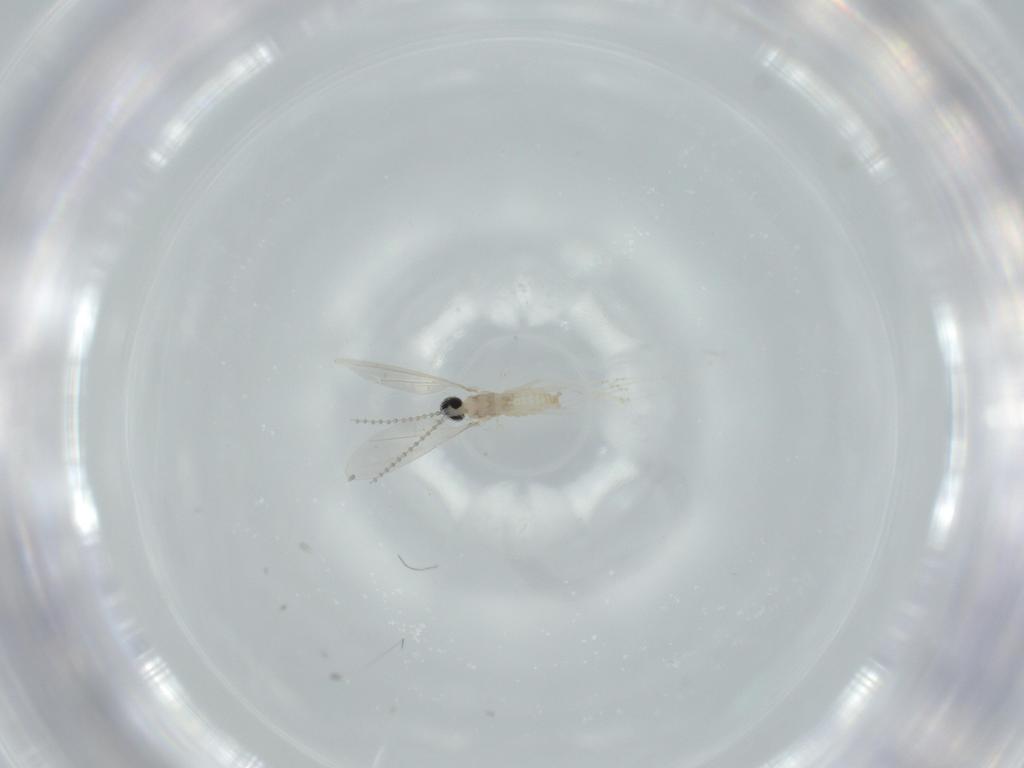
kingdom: Animalia
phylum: Arthropoda
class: Insecta
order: Diptera
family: Cecidomyiidae
